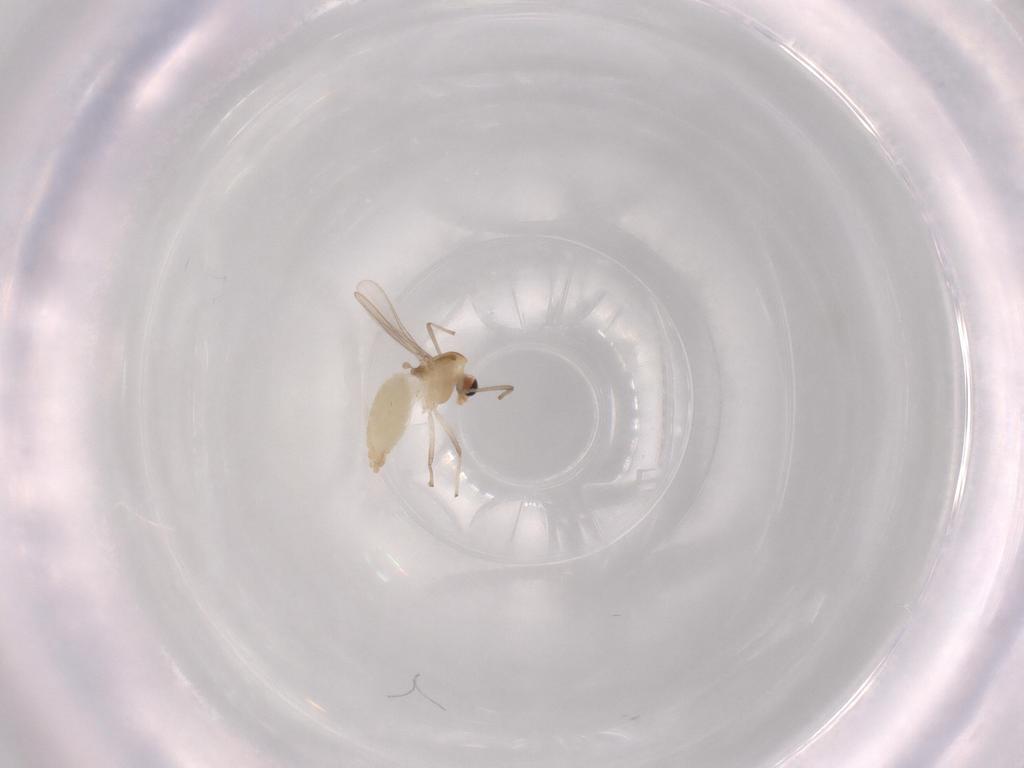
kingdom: Animalia
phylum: Arthropoda
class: Insecta
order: Diptera
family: Chironomidae
